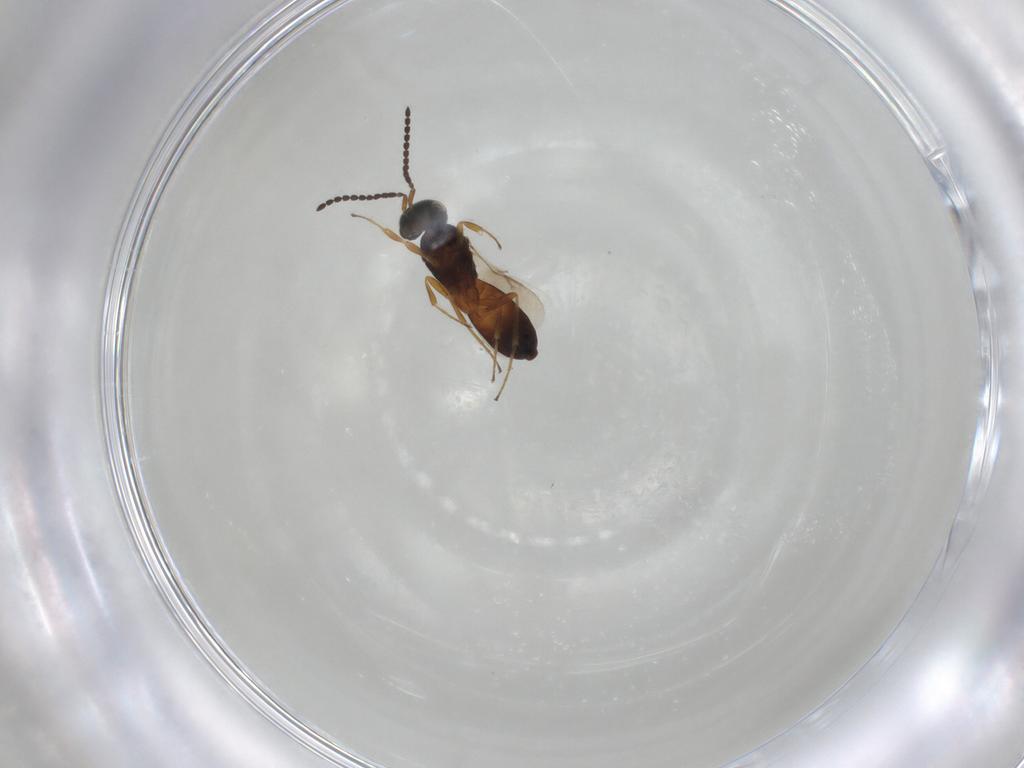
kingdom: Animalia
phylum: Arthropoda
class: Insecta
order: Hymenoptera
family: Scelionidae
